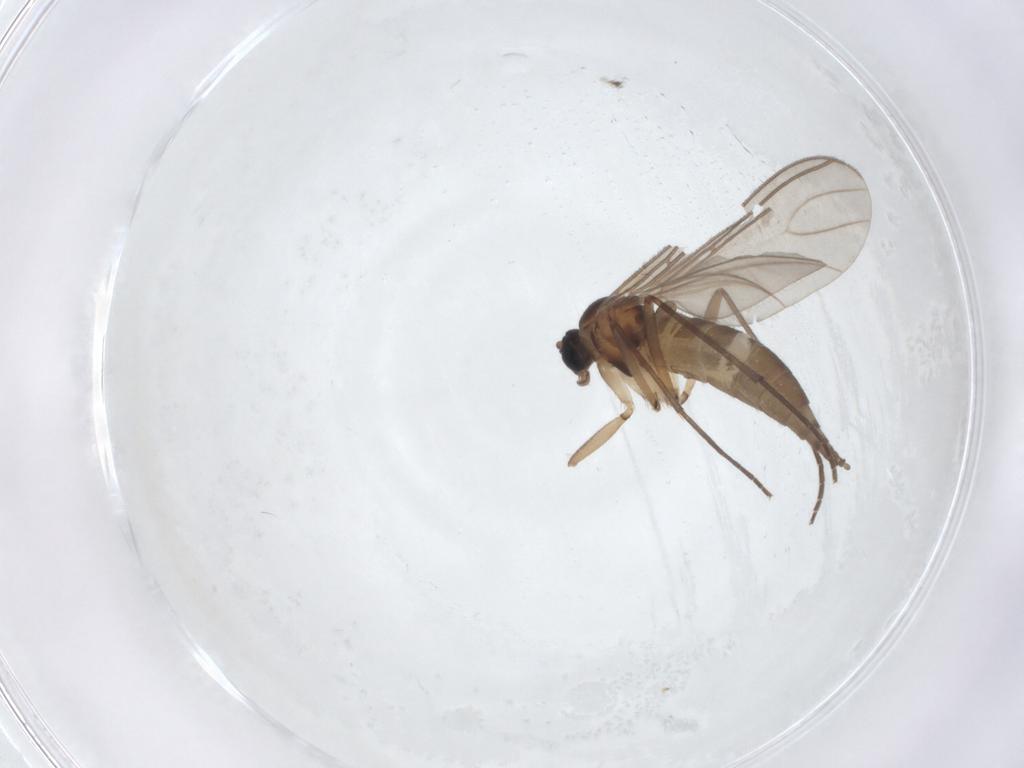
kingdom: Animalia
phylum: Arthropoda
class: Insecta
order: Diptera
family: Sciaridae
